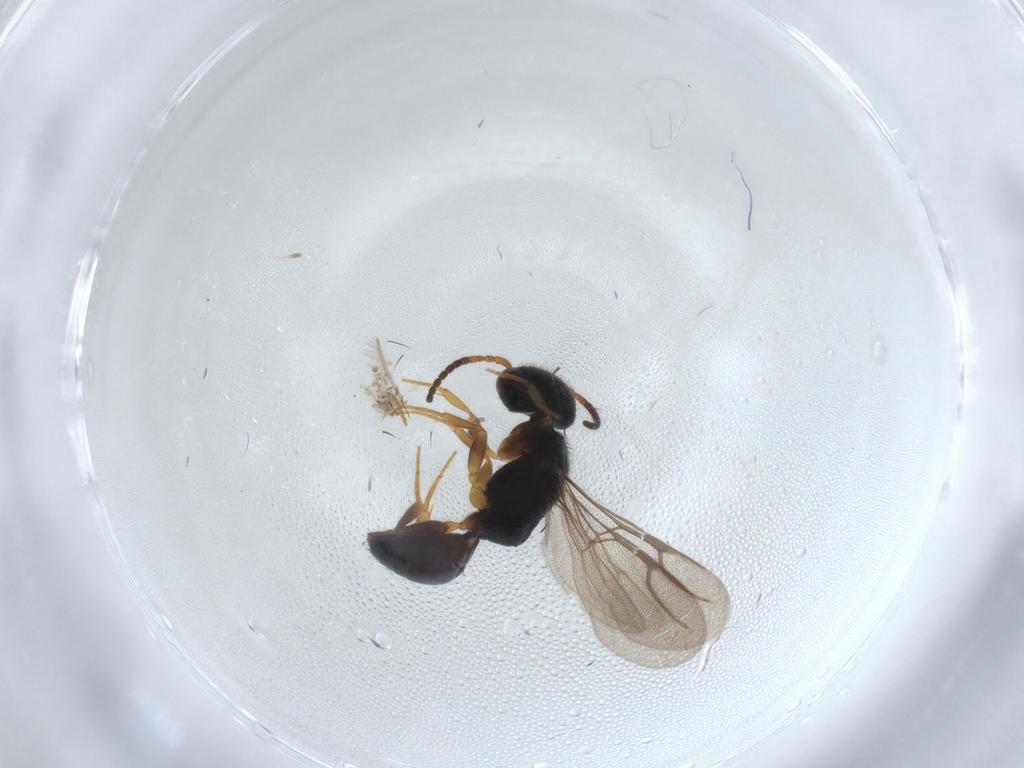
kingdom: Animalia
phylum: Arthropoda
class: Insecta
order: Hymenoptera
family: Bethylidae
